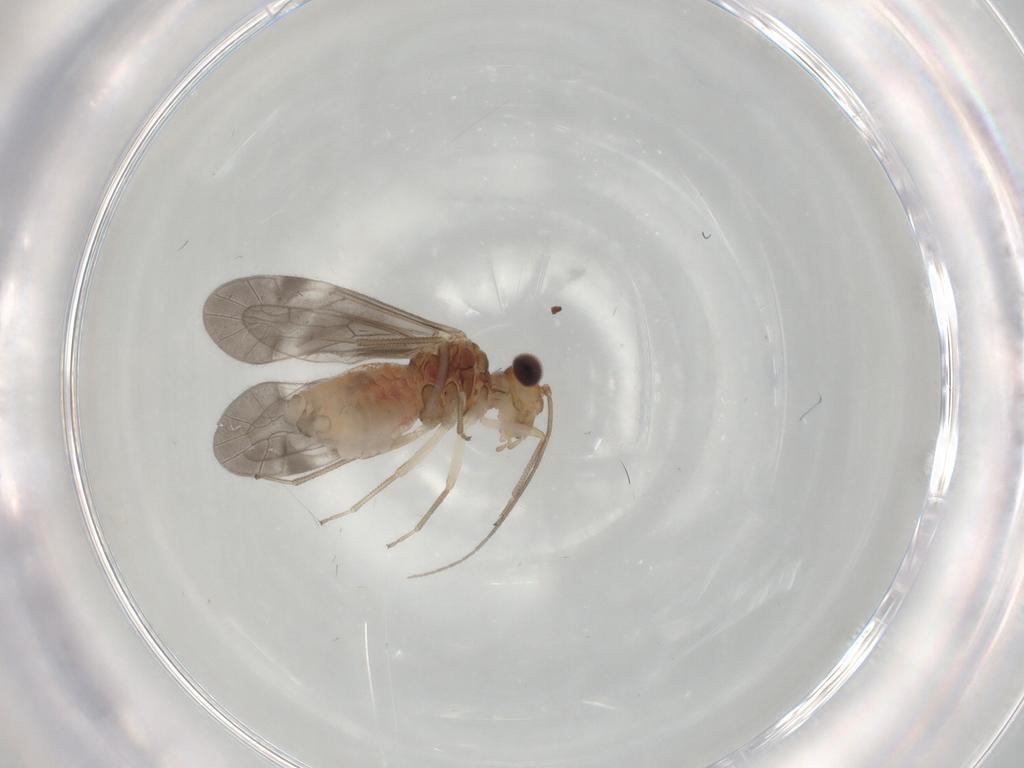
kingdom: Animalia
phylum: Arthropoda
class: Insecta
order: Psocodea
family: Caeciliusidae
